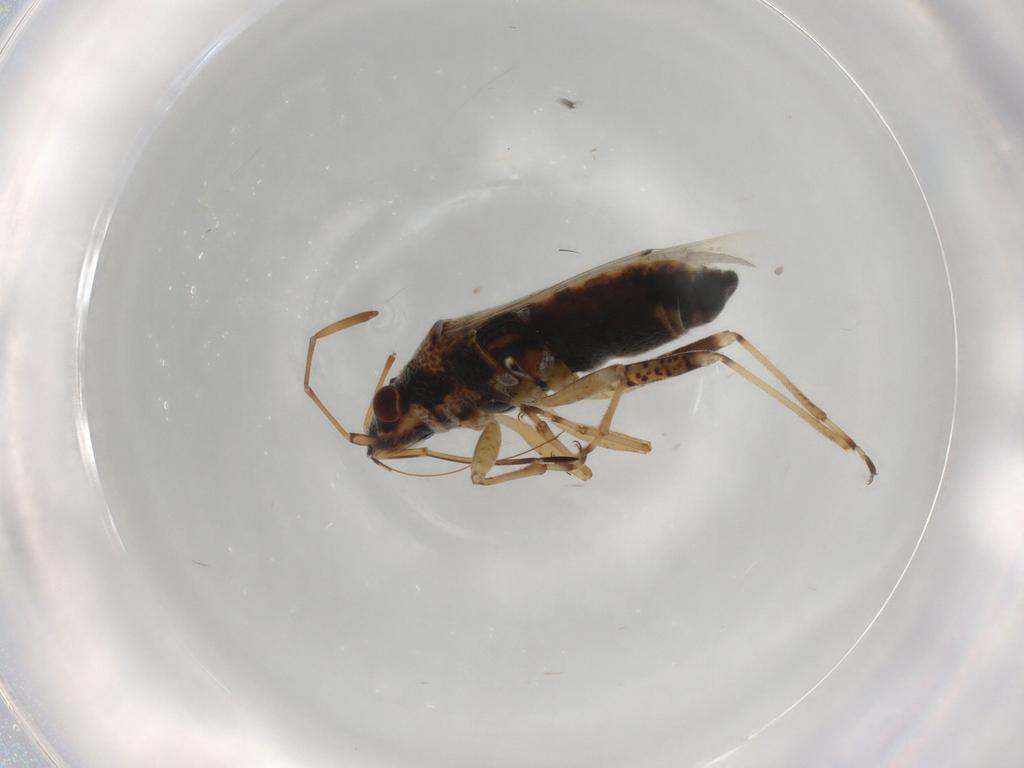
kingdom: Animalia
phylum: Arthropoda
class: Insecta
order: Hemiptera
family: Lygaeidae
